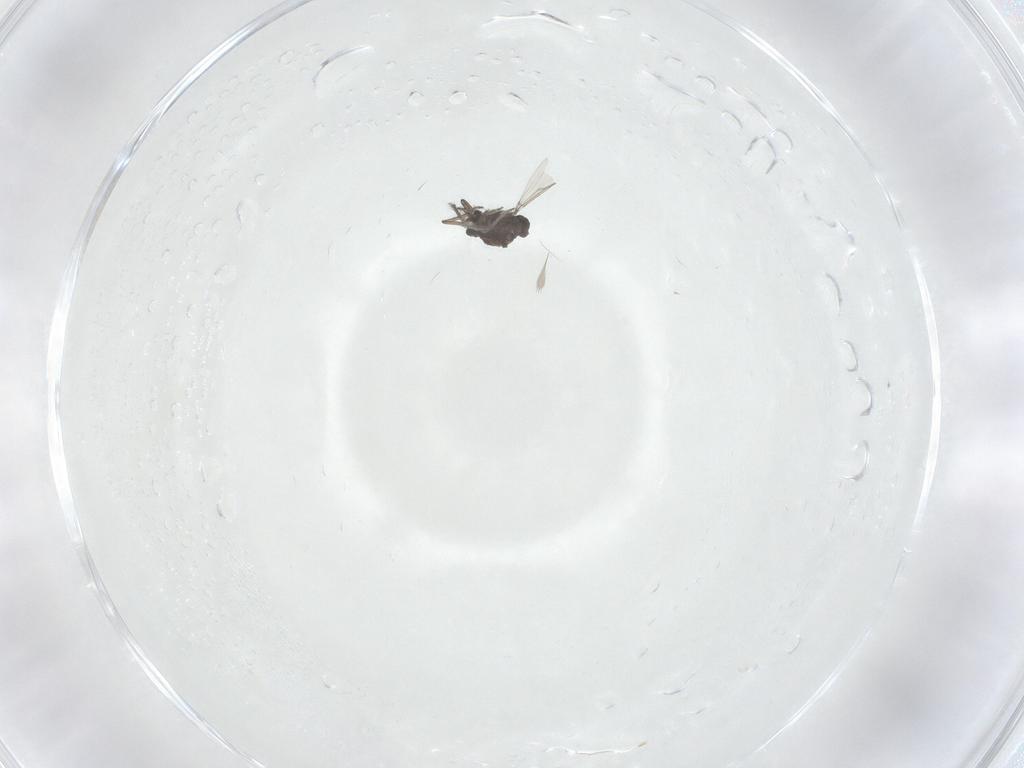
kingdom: Animalia
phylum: Arthropoda
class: Insecta
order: Diptera
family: Ceratopogonidae
